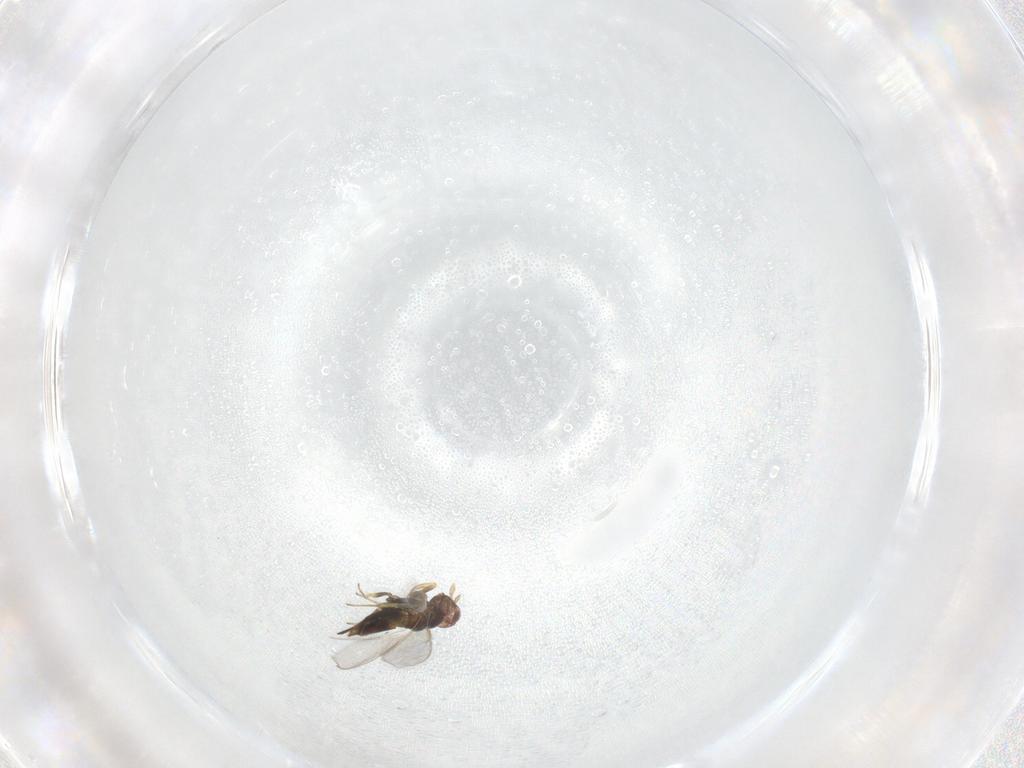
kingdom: Animalia
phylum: Arthropoda
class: Insecta
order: Hymenoptera
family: Aphelinidae
